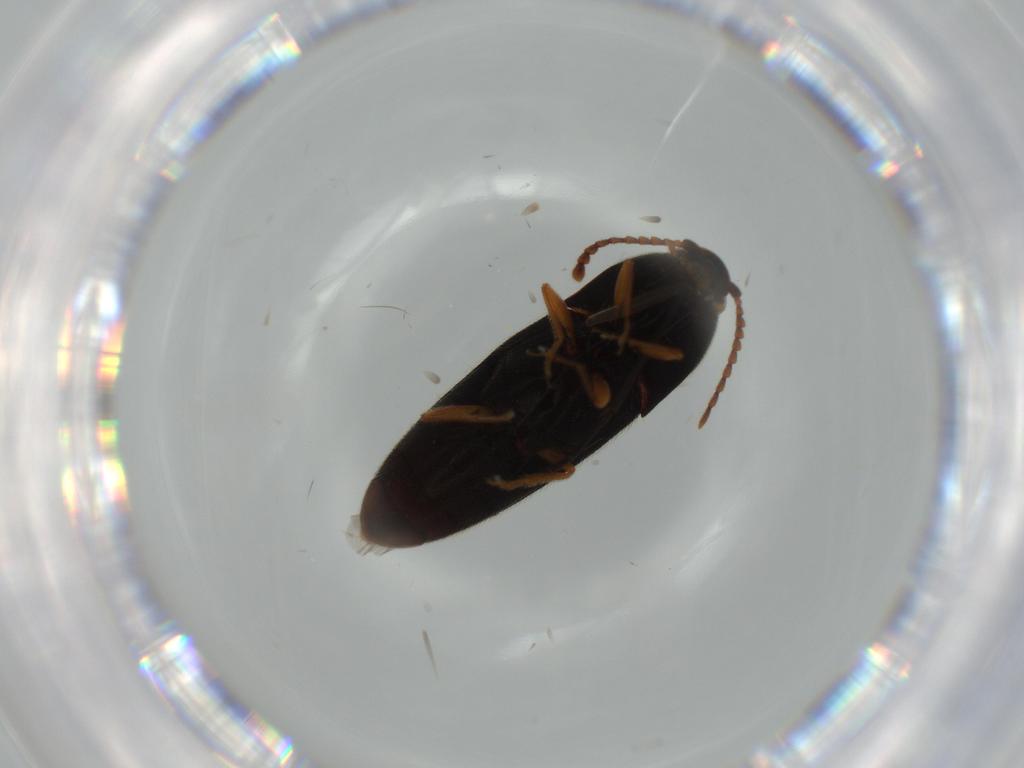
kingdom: Animalia
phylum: Arthropoda
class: Insecta
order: Coleoptera
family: Elateridae
